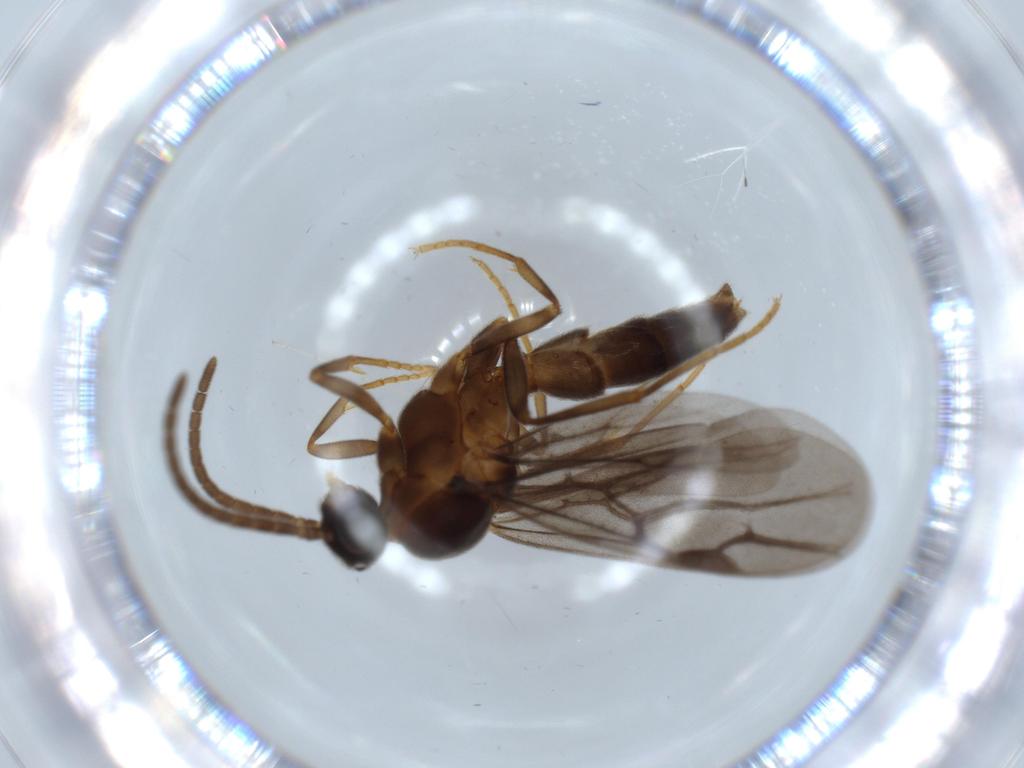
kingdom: Animalia
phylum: Arthropoda
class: Insecta
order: Hymenoptera
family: Formicidae
